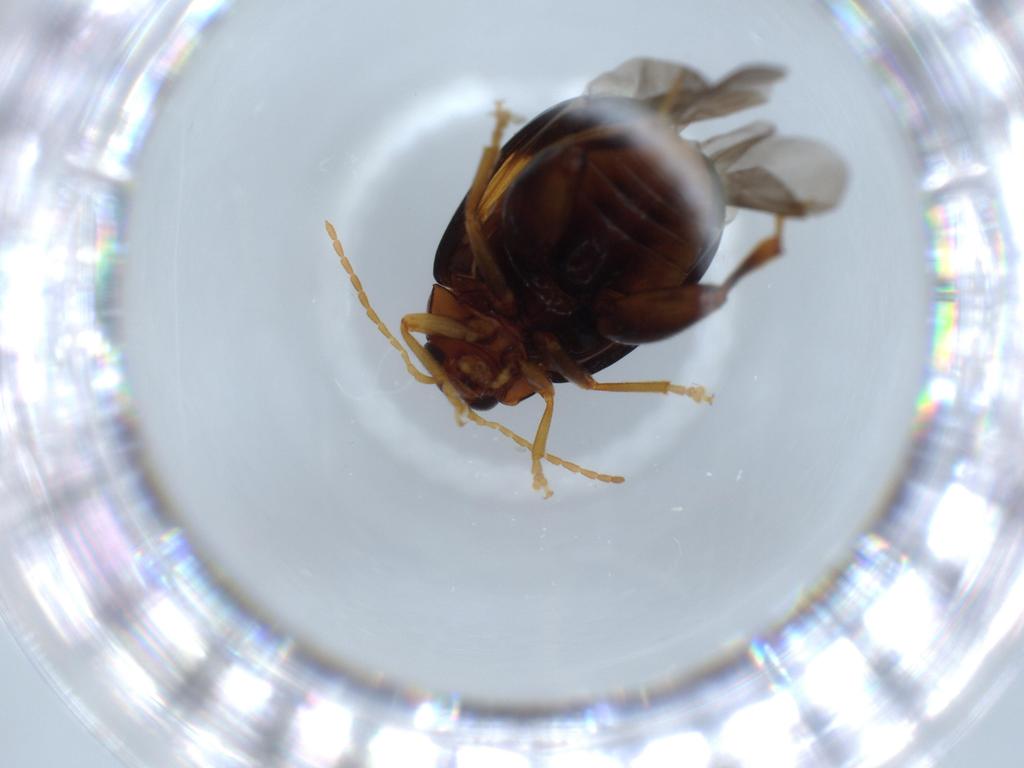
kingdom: Animalia
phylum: Arthropoda
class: Insecta
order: Coleoptera
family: Chrysomelidae
